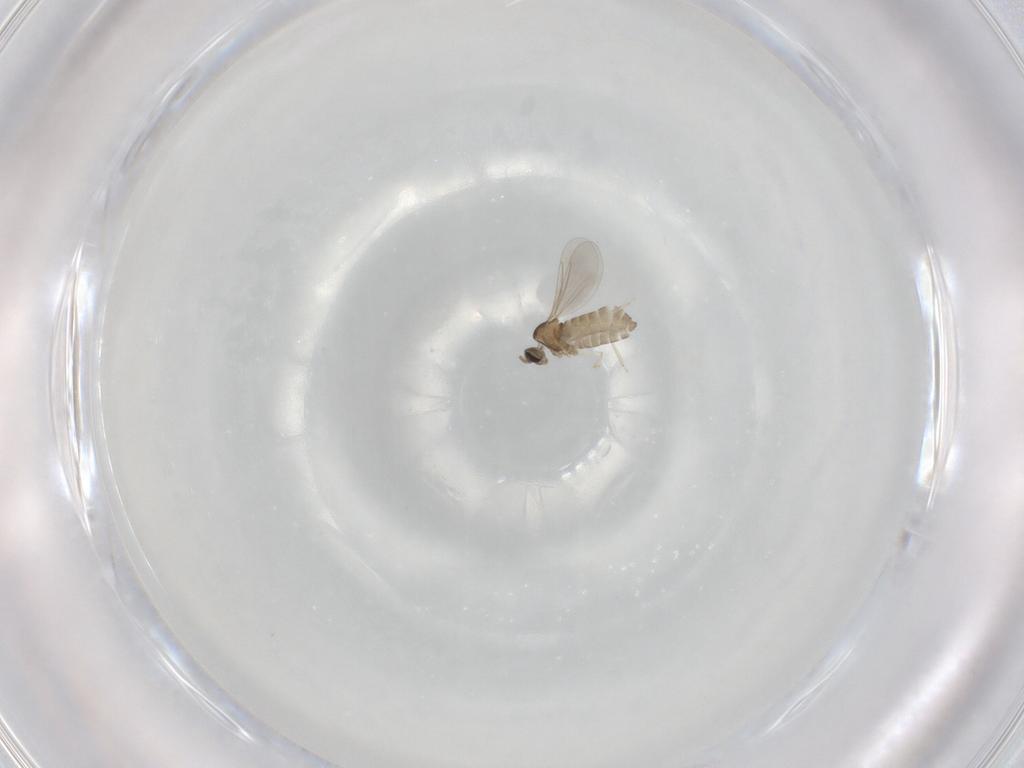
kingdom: Animalia
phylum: Arthropoda
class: Insecta
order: Diptera
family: Cecidomyiidae
